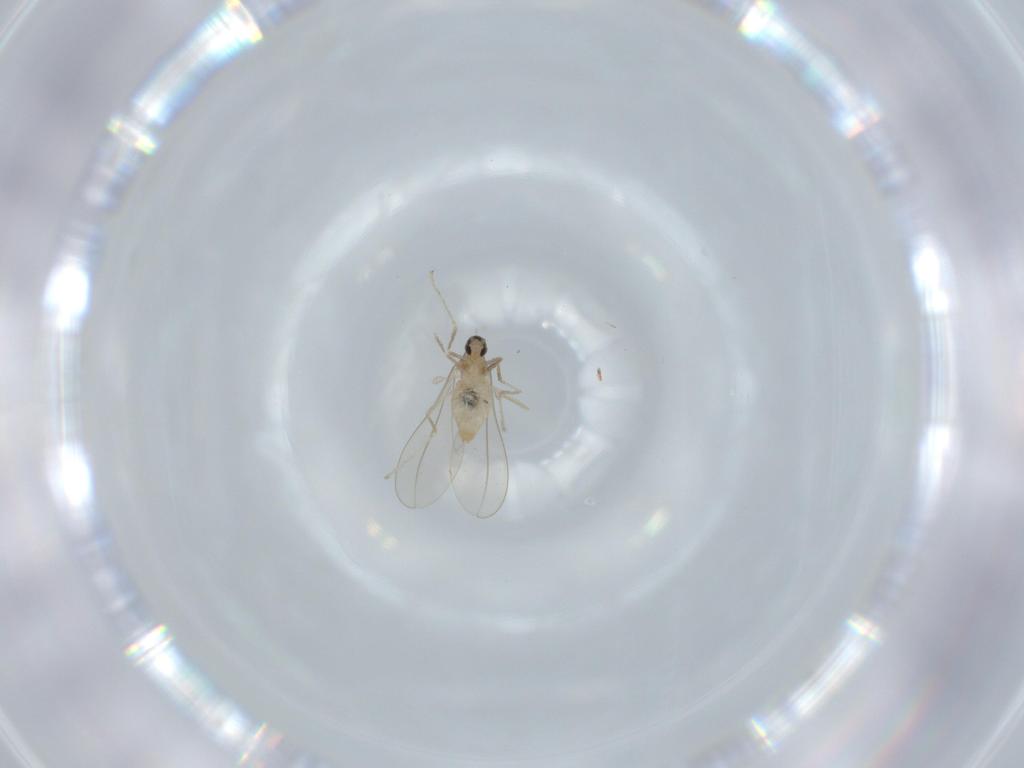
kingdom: Animalia
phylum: Arthropoda
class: Insecta
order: Diptera
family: Cecidomyiidae
